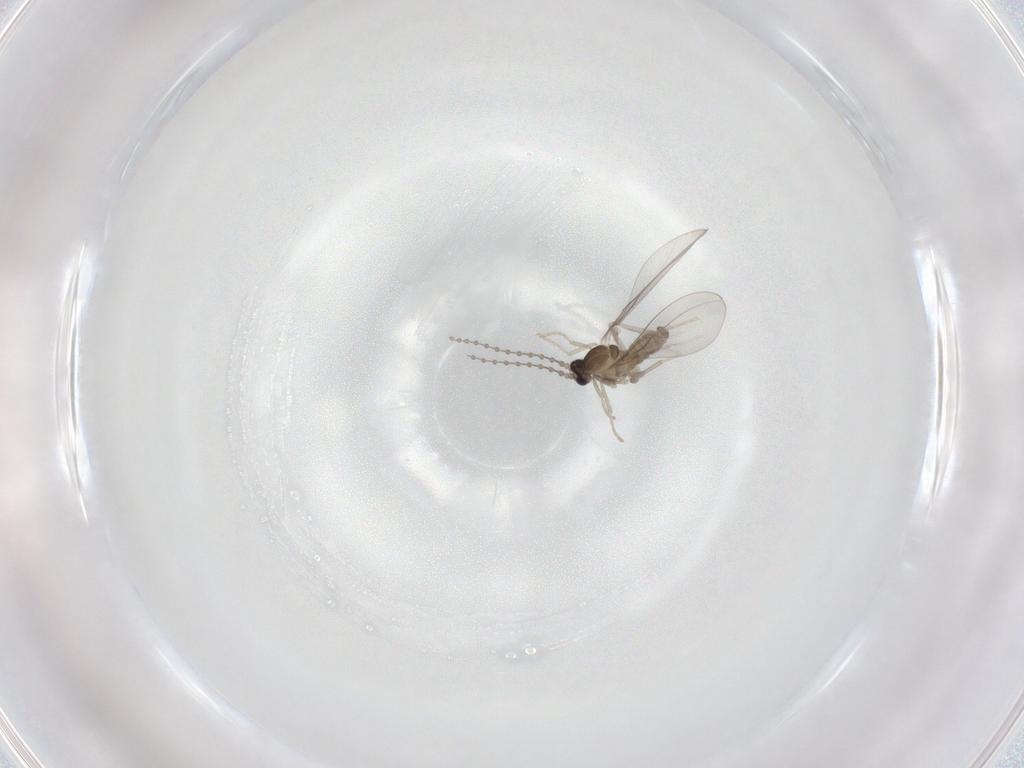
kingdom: Animalia
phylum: Arthropoda
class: Insecta
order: Diptera
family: Cecidomyiidae
